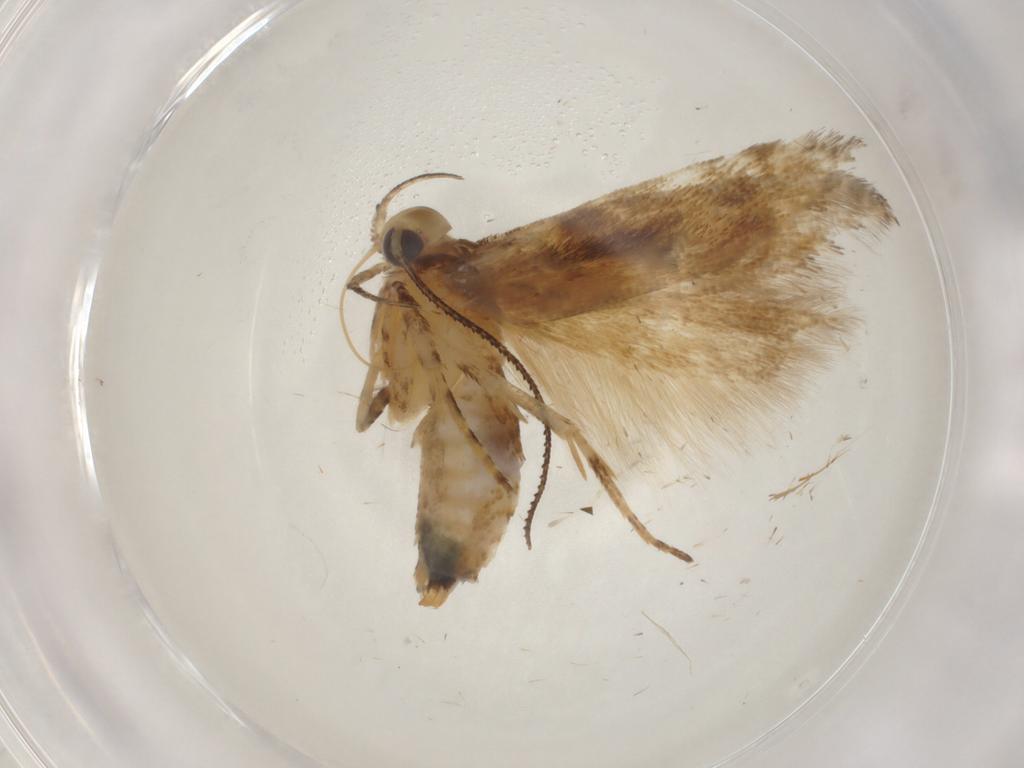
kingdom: Animalia
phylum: Arthropoda
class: Insecta
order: Lepidoptera
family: Gelechiidae
